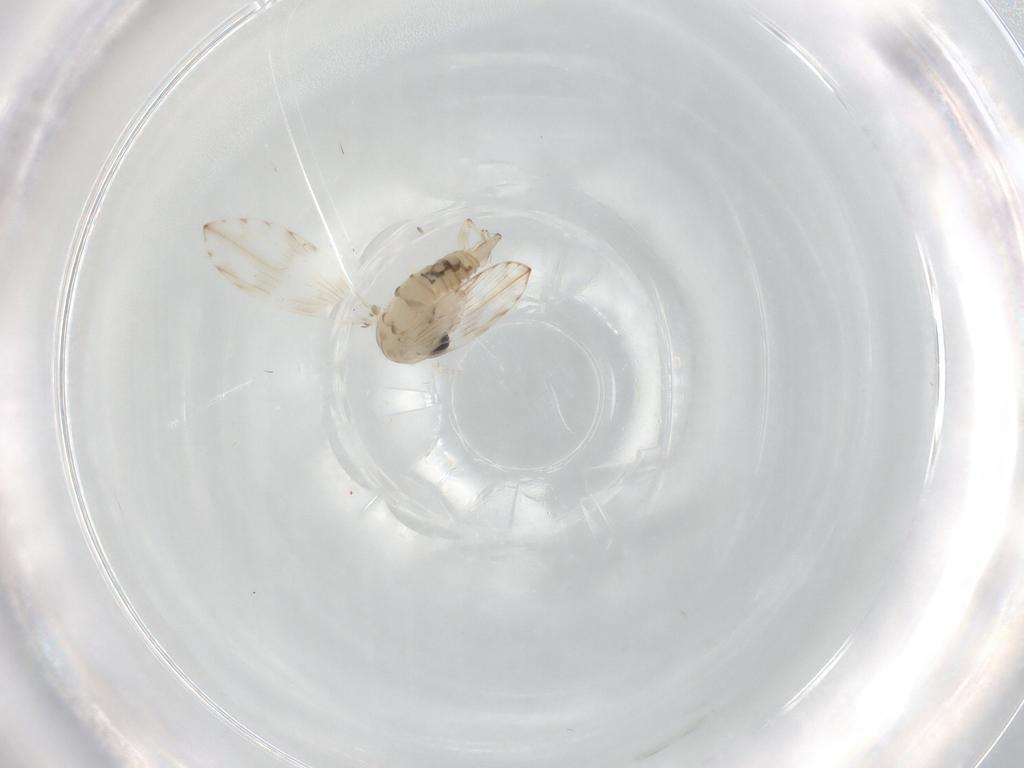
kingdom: Animalia
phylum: Arthropoda
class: Insecta
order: Diptera
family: Psychodidae
